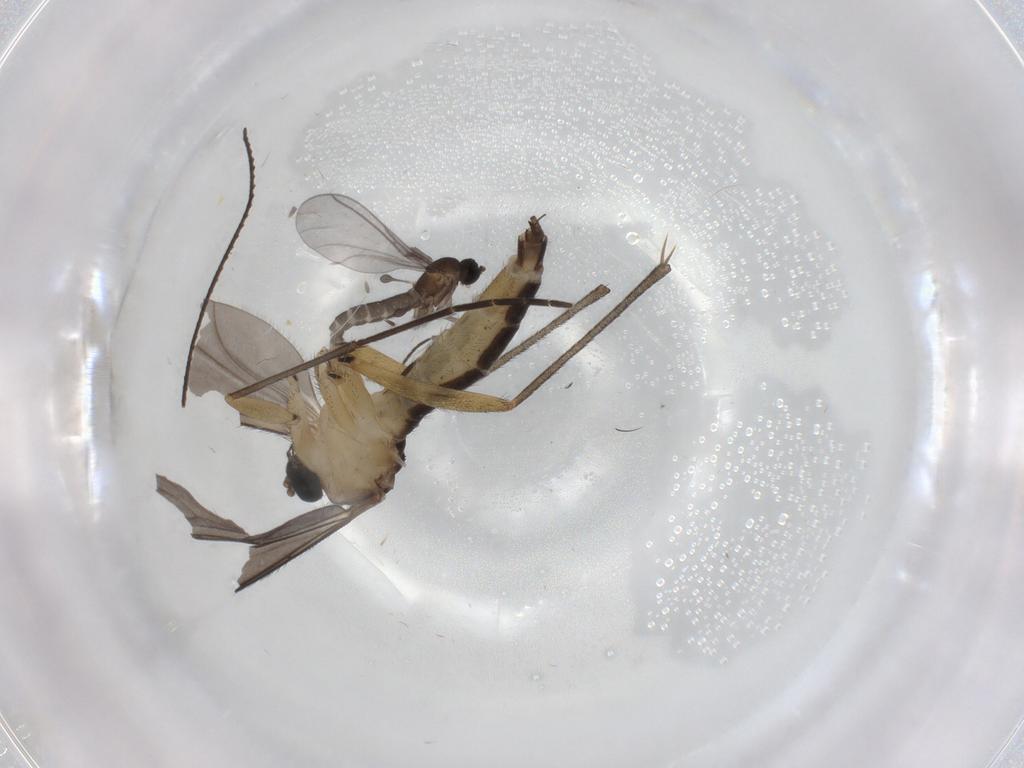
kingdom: Animalia
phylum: Arthropoda
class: Insecta
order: Diptera
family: Sciaridae
